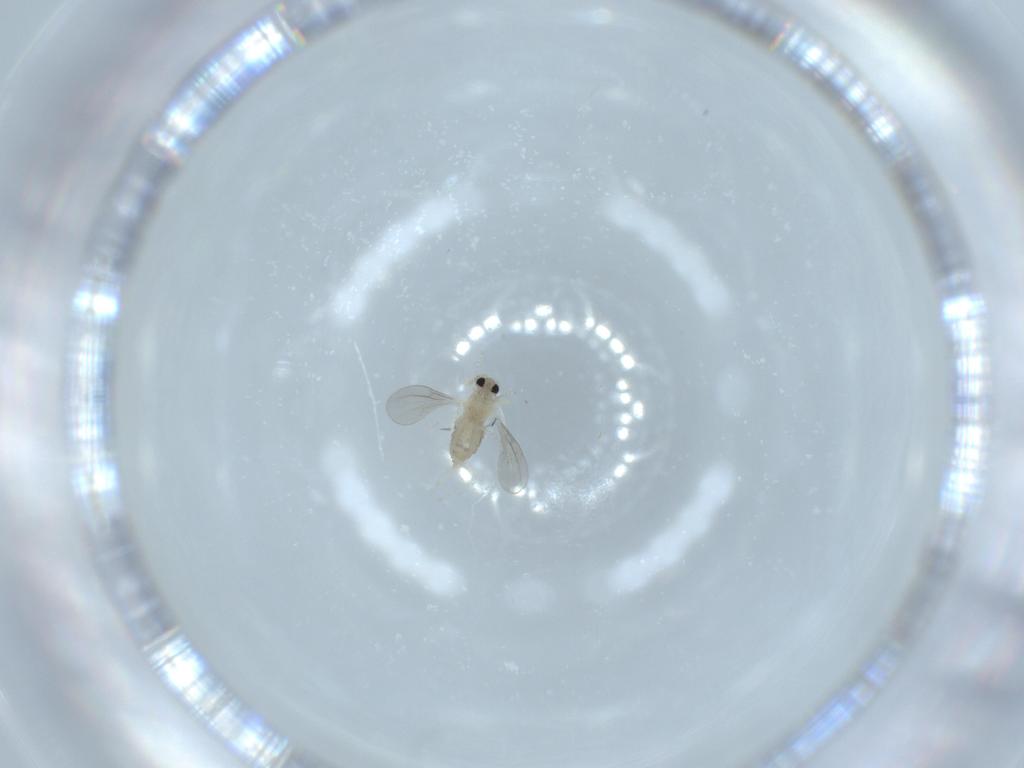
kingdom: Animalia
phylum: Arthropoda
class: Insecta
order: Diptera
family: Cecidomyiidae
